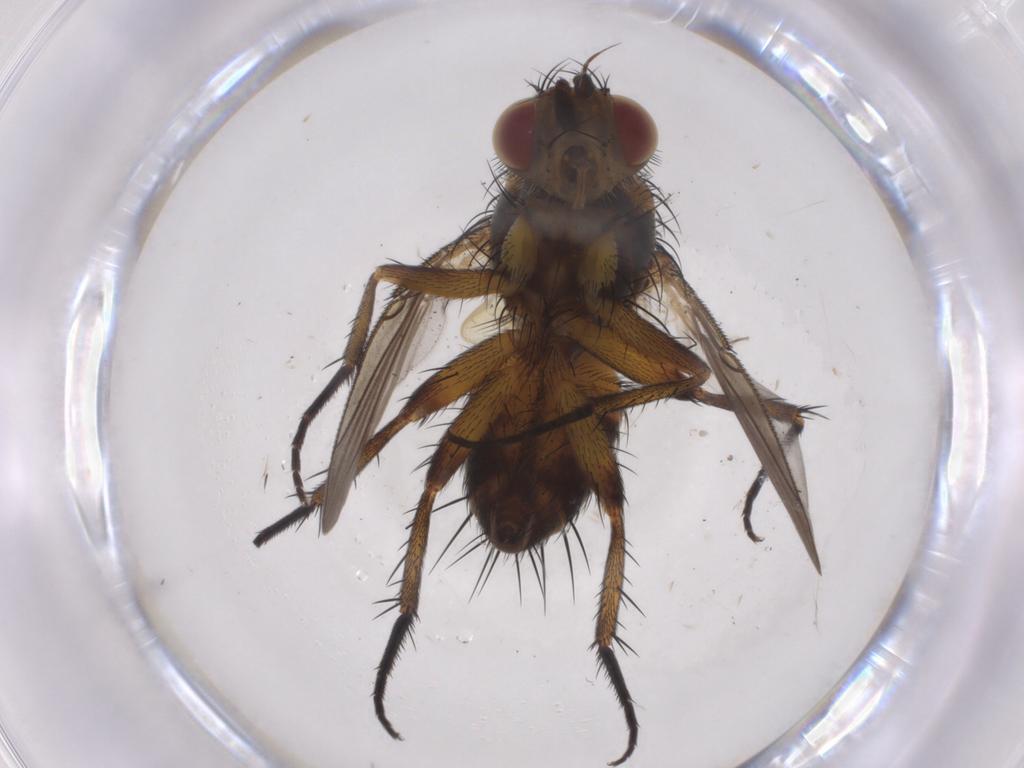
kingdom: Animalia
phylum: Arthropoda
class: Insecta
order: Diptera
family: Tachinidae
